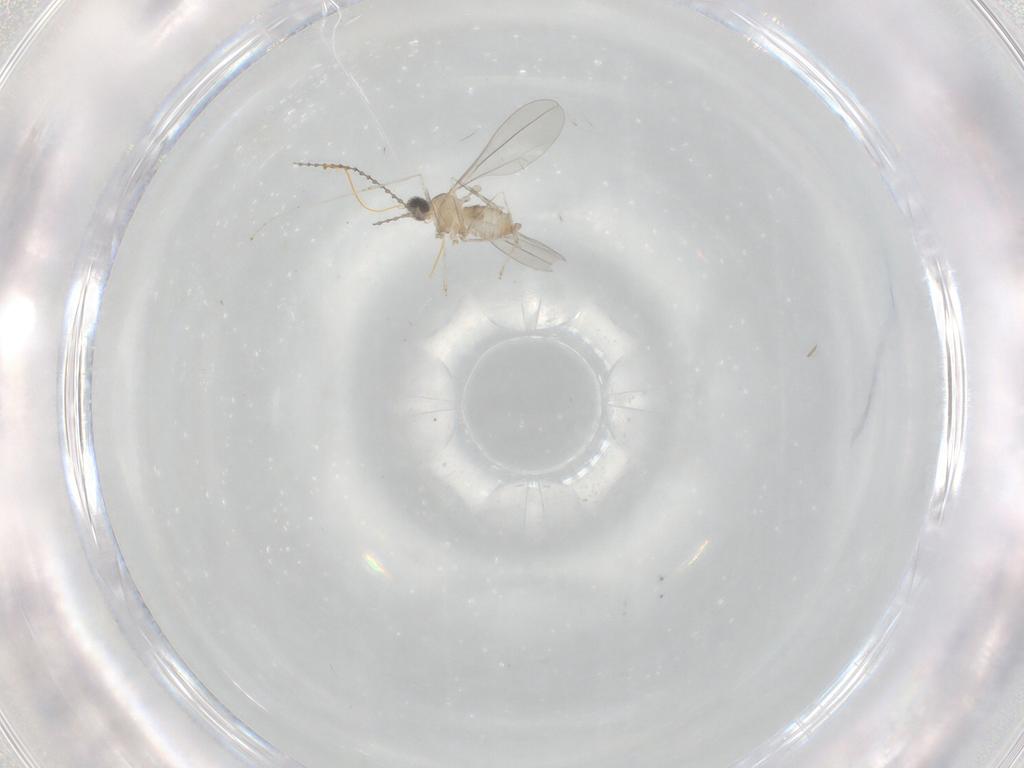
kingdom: Animalia
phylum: Arthropoda
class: Insecta
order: Diptera
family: Cecidomyiidae
